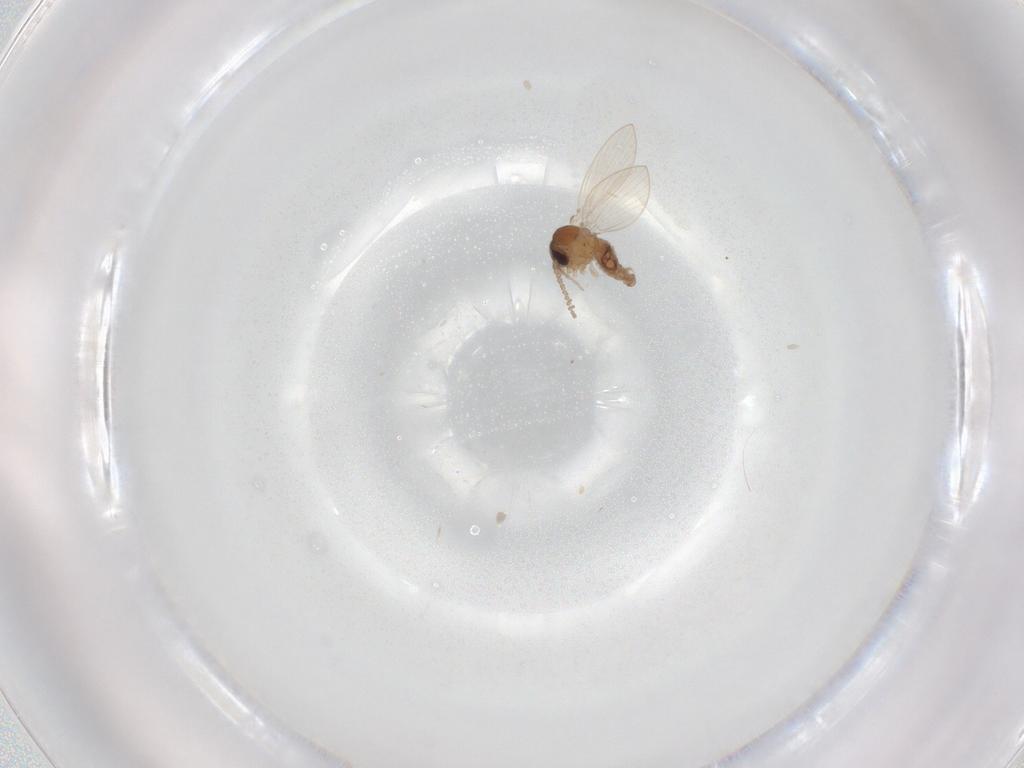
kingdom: Animalia
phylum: Arthropoda
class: Insecta
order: Diptera
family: Psychodidae
